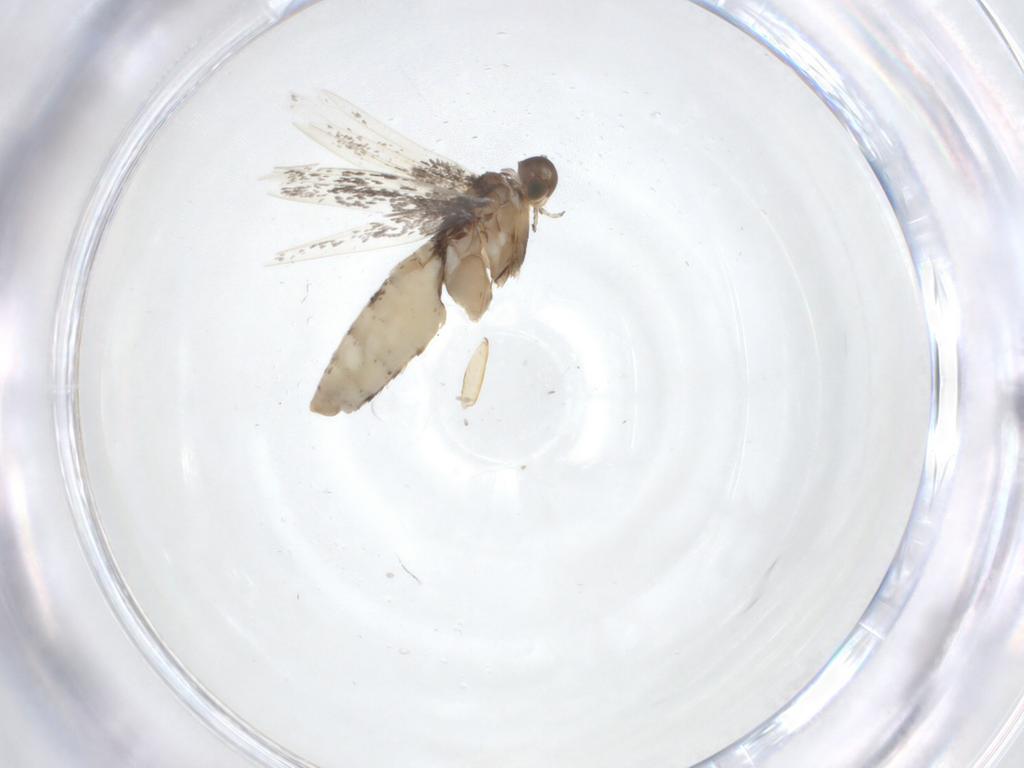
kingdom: Animalia
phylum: Arthropoda
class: Insecta
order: Lepidoptera
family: Gracillariidae
